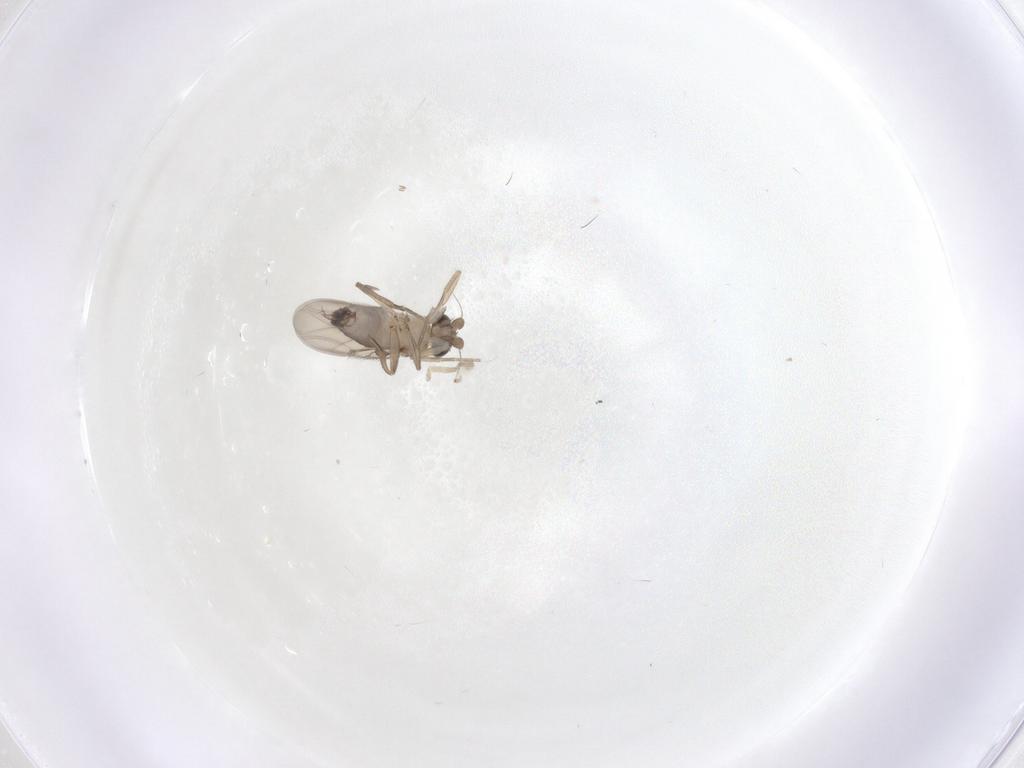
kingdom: Animalia
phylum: Arthropoda
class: Insecta
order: Diptera
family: Phoridae
